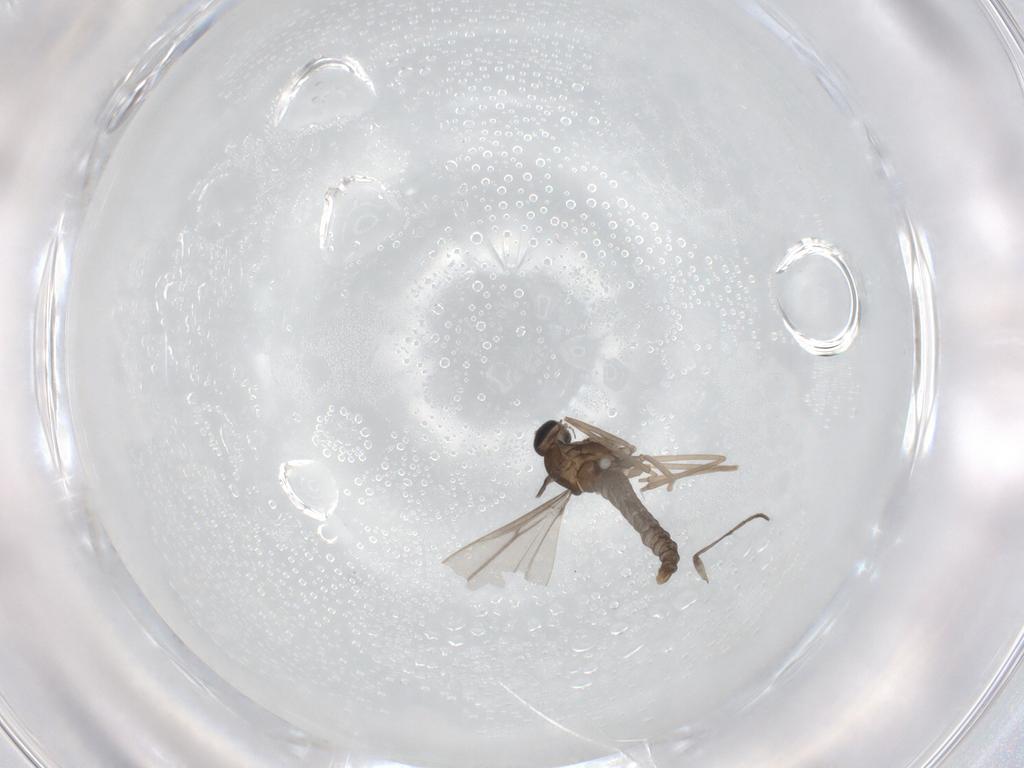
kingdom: Animalia
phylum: Arthropoda
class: Insecta
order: Diptera
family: Cecidomyiidae
